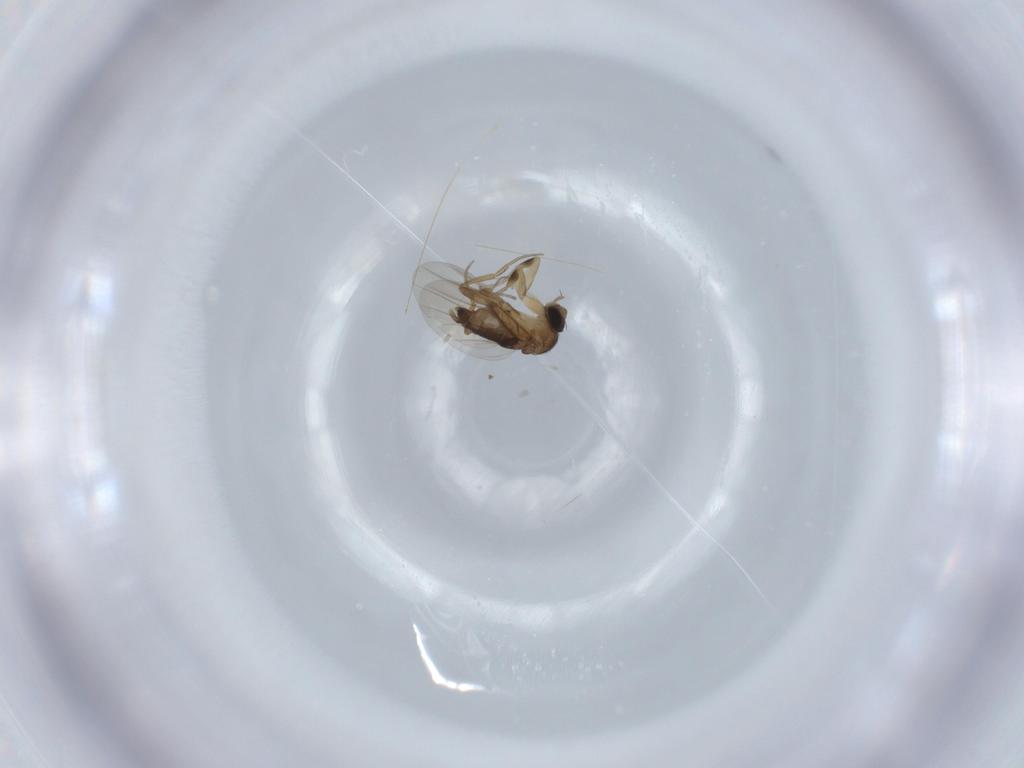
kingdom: Animalia
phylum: Arthropoda
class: Insecta
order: Diptera
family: Phoridae
